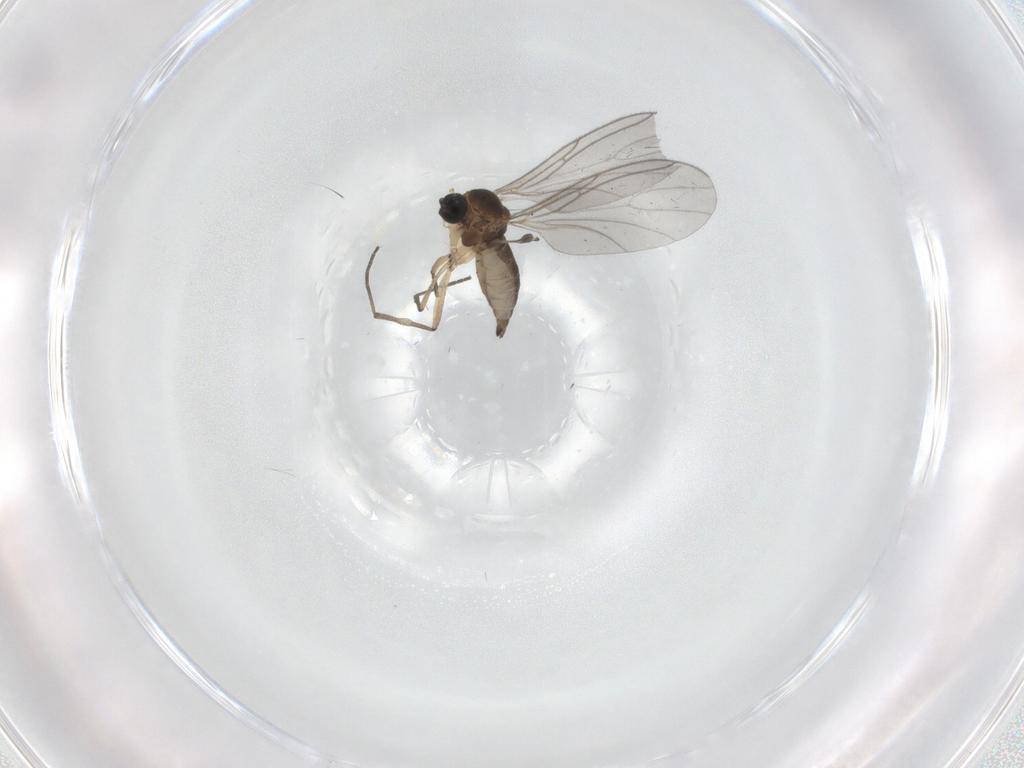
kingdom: Animalia
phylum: Arthropoda
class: Insecta
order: Diptera
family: Sciaridae
